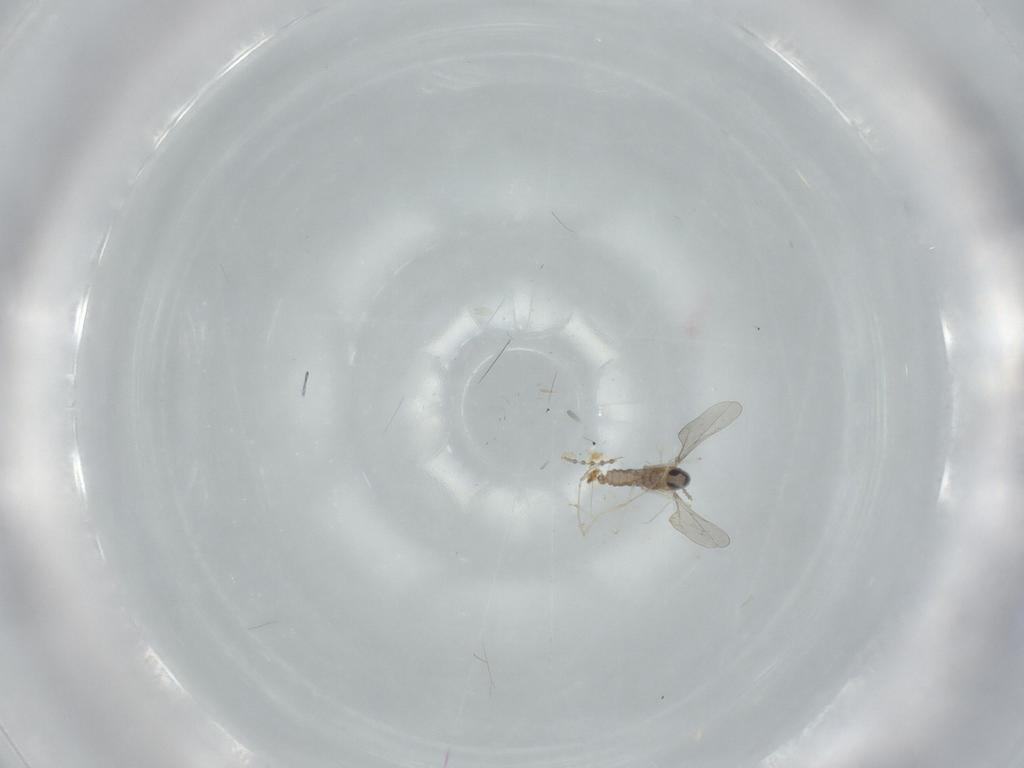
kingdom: Animalia
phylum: Arthropoda
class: Insecta
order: Diptera
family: Cecidomyiidae
